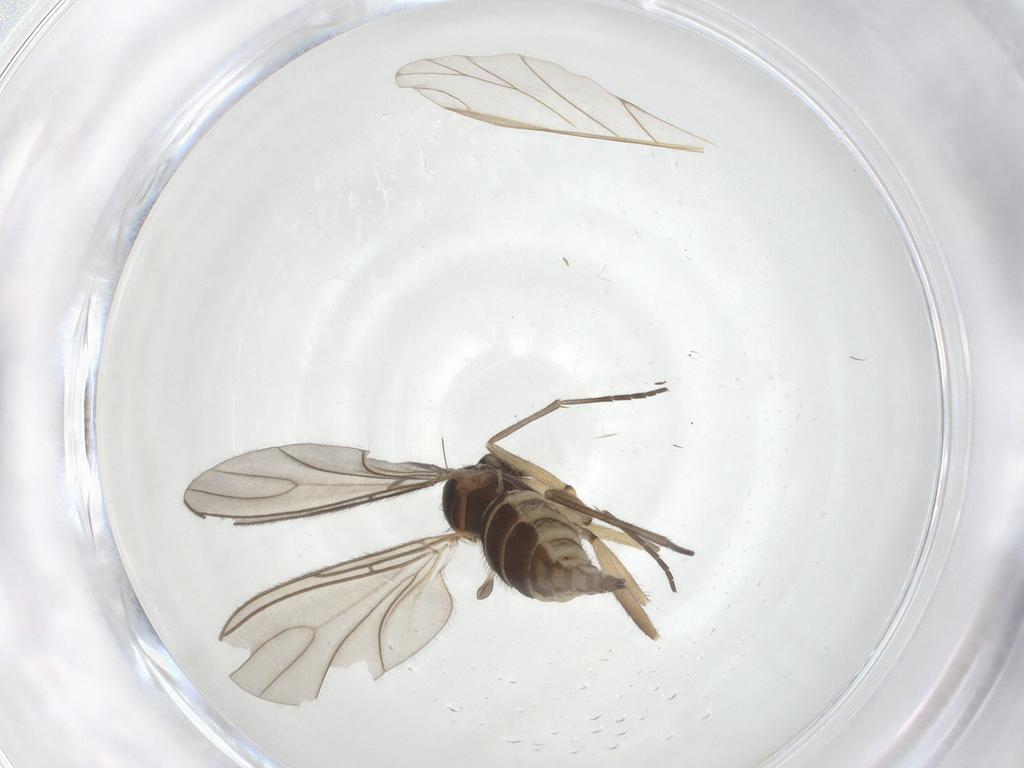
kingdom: Animalia
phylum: Arthropoda
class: Insecta
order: Diptera
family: Sciaridae
